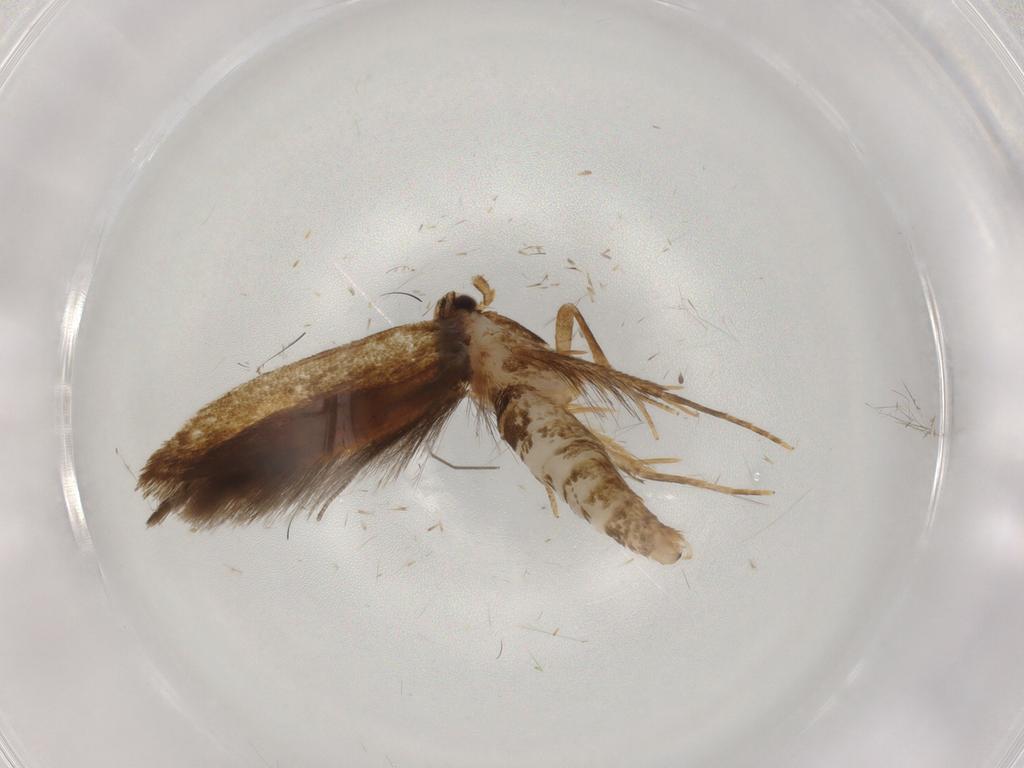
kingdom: Animalia
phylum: Arthropoda
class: Insecta
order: Lepidoptera
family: Tineidae
